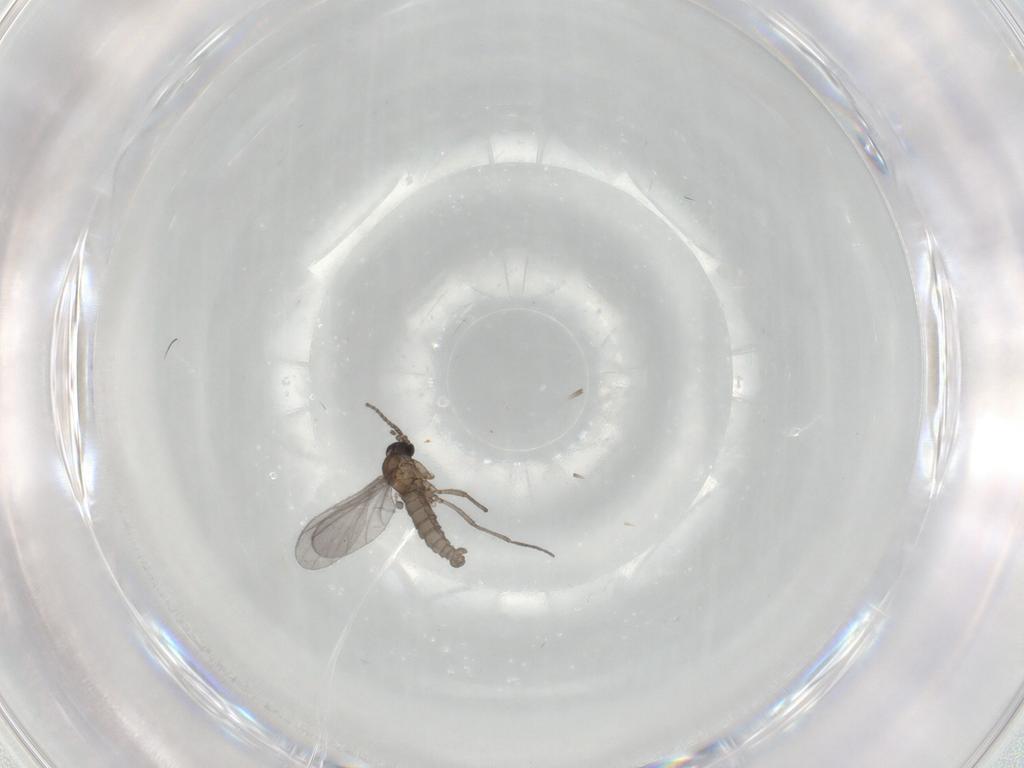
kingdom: Animalia
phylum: Arthropoda
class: Insecta
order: Diptera
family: Sciaridae
